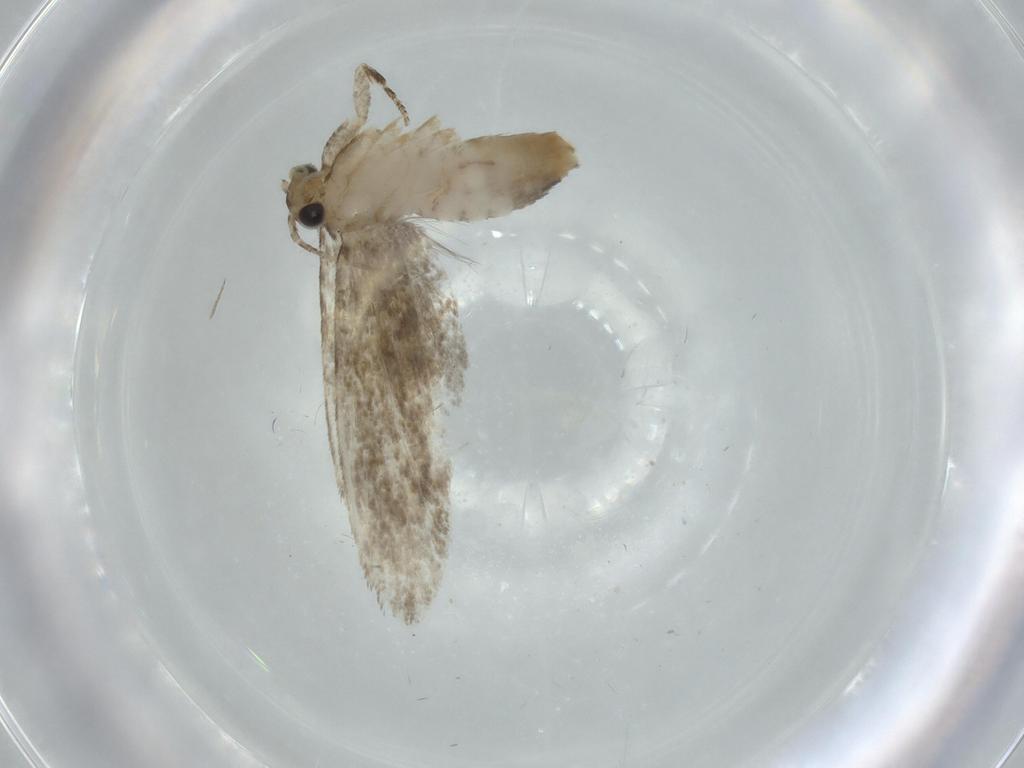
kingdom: Animalia
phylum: Arthropoda
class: Insecta
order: Lepidoptera
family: Tineidae
